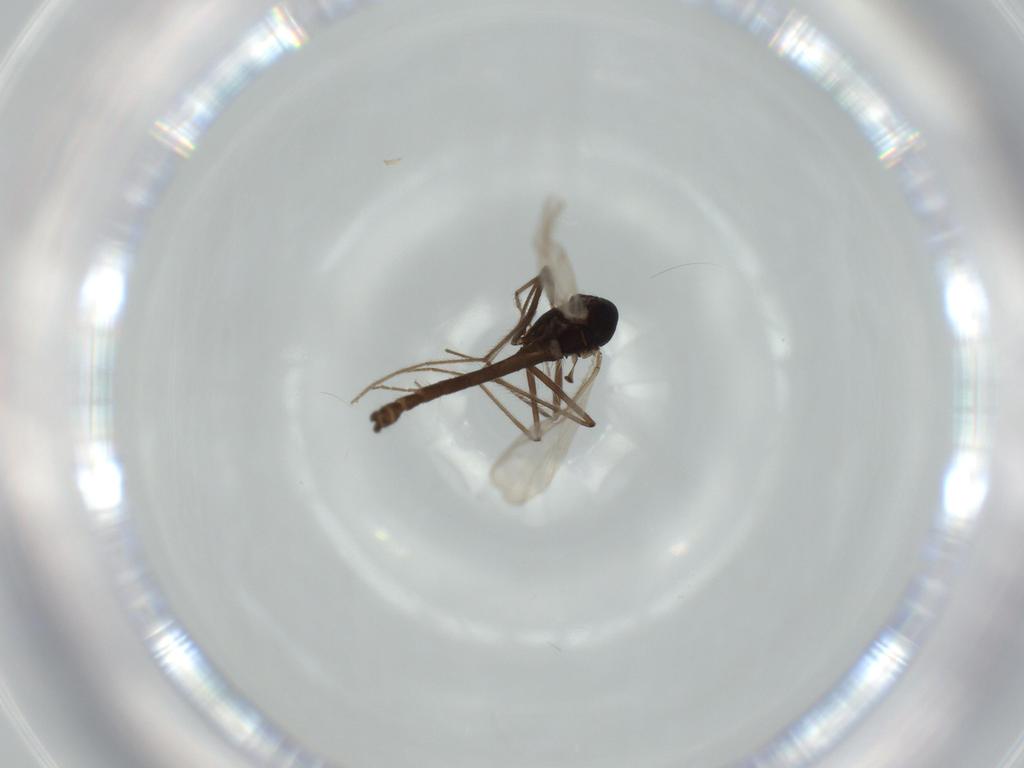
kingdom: Animalia
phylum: Arthropoda
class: Insecta
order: Diptera
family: Chironomidae
